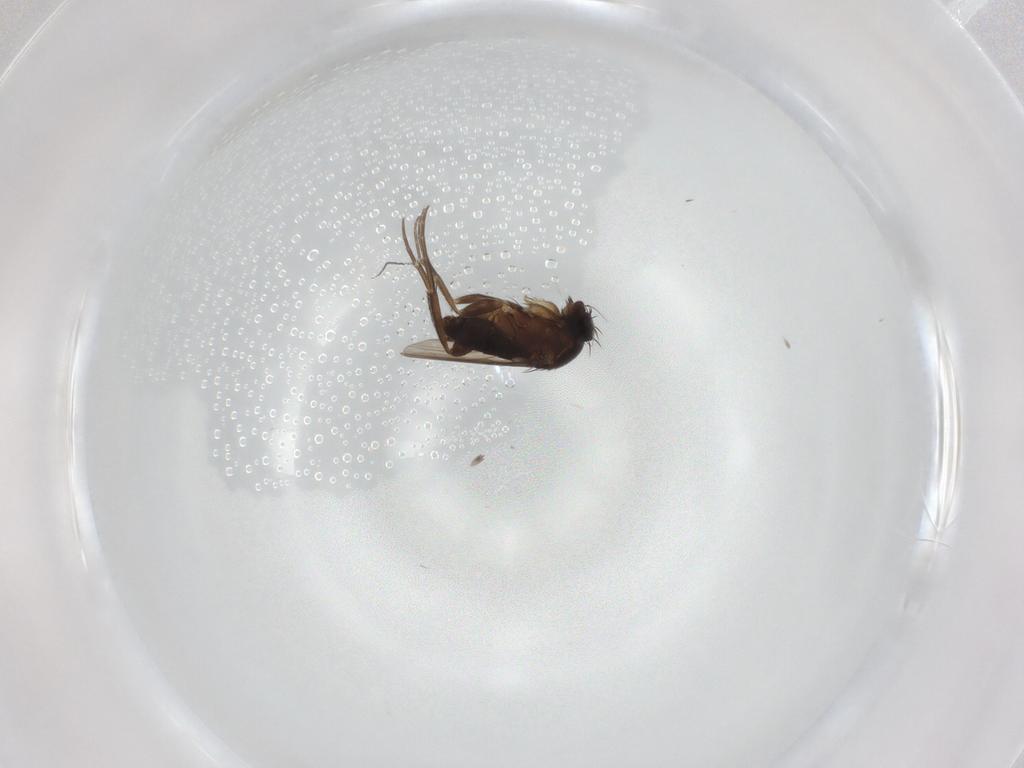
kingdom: Animalia
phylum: Arthropoda
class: Insecta
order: Diptera
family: Phoridae
